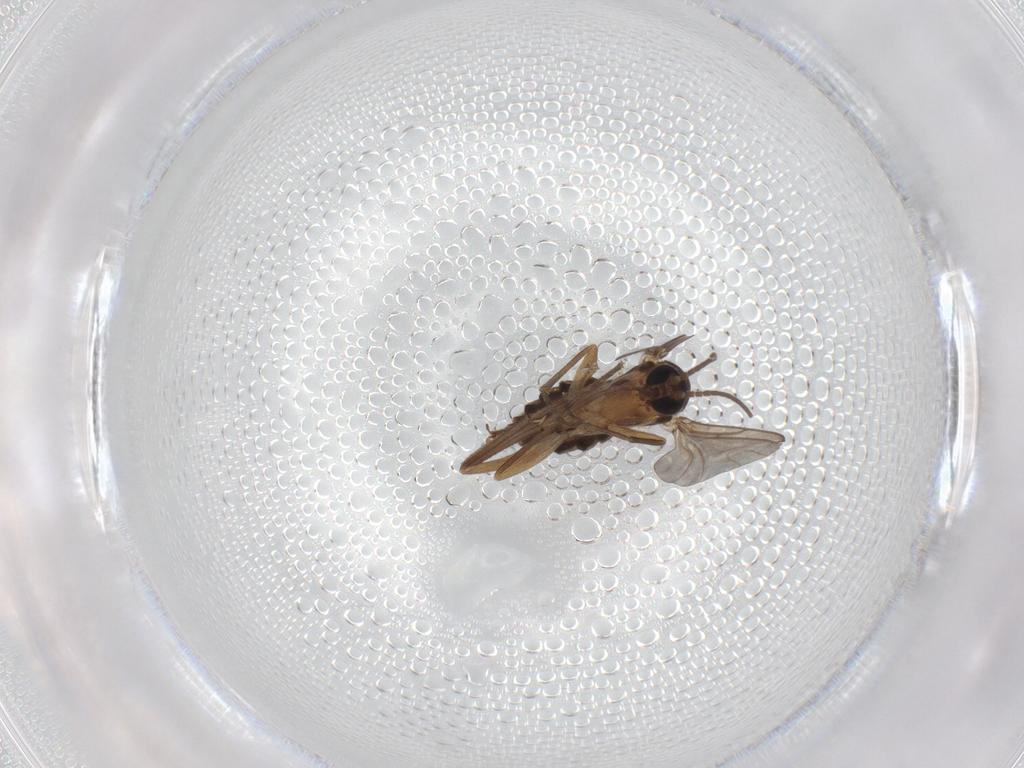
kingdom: Animalia
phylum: Arthropoda
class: Insecta
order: Diptera
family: Sciaridae
